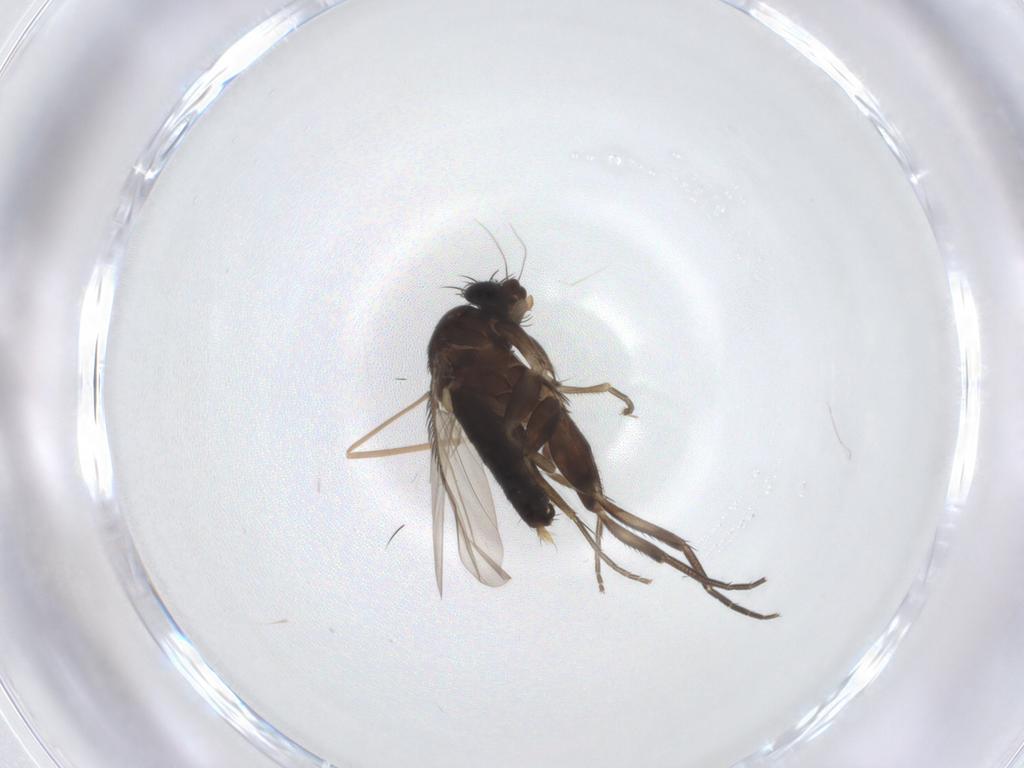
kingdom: Animalia
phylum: Arthropoda
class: Insecta
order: Diptera
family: Phoridae
